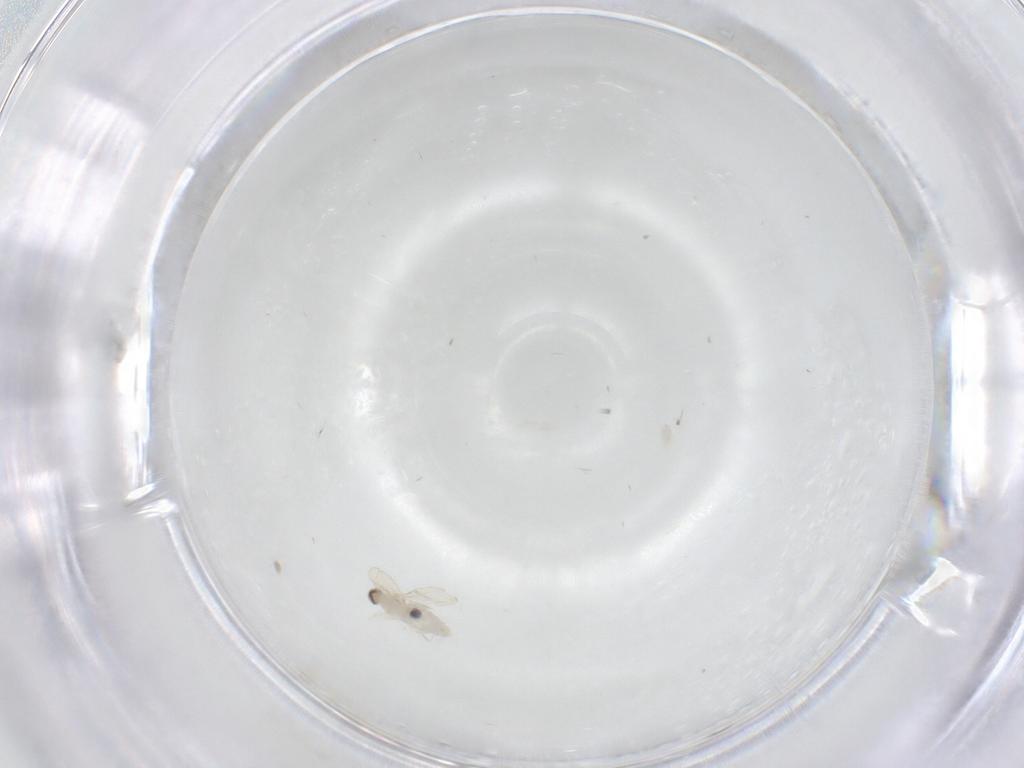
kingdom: Animalia
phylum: Arthropoda
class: Insecta
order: Diptera
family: Cecidomyiidae
